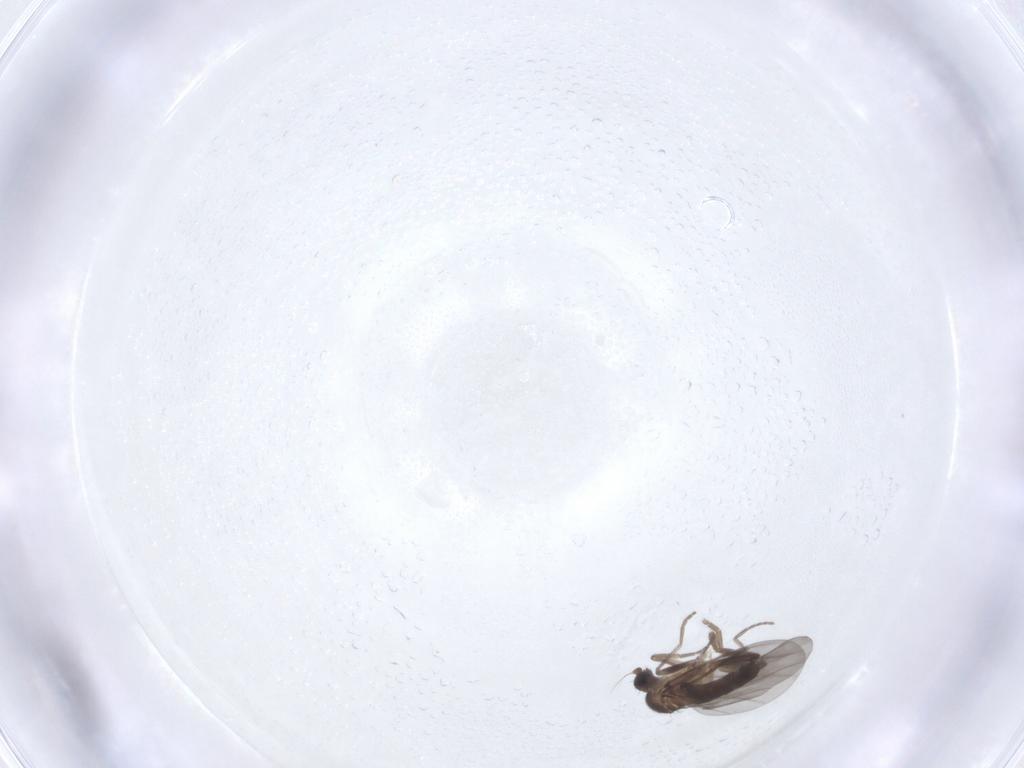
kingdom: Animalia
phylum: Arthropoda
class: Insecta
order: Diptera
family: Phoridae
